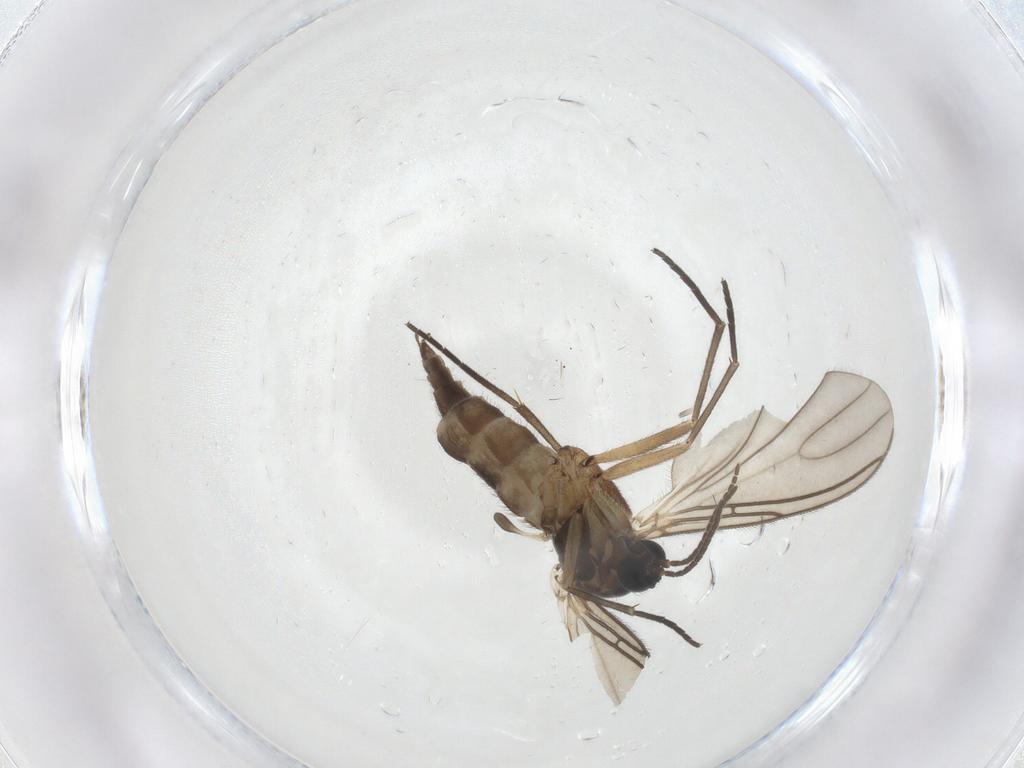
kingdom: Animalia
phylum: Arthropoda
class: Insecta
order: Diptera
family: Sciaridae
